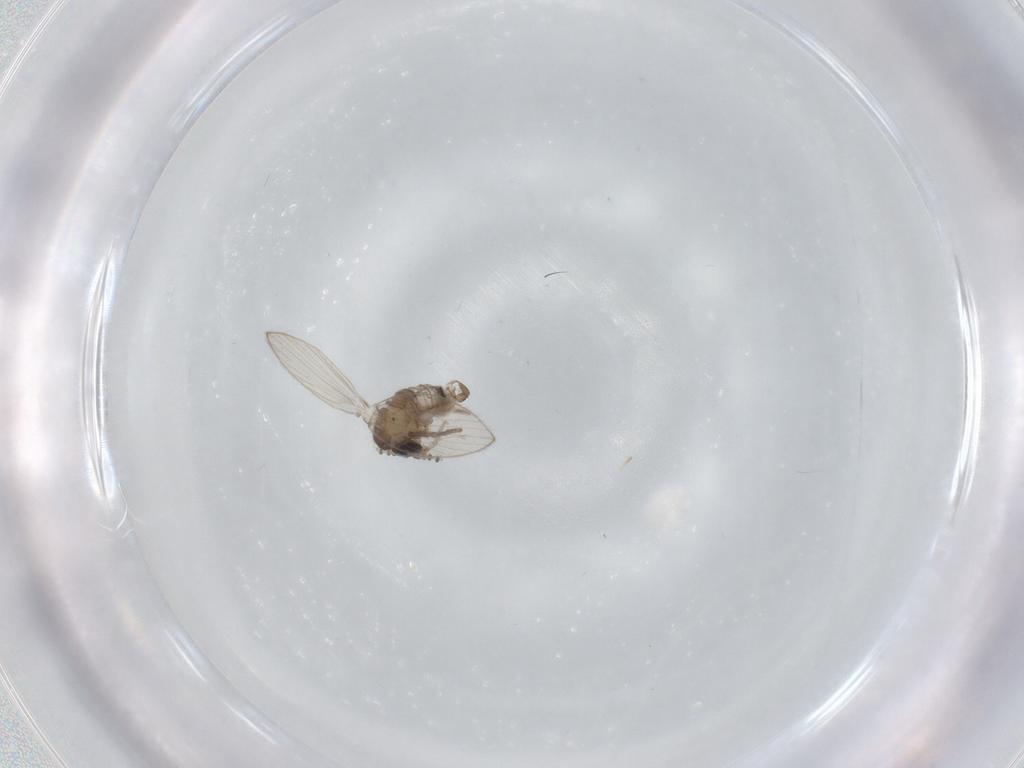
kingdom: Animalia
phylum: Arthropoda
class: Insecta
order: Diptera
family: Psychodidae
